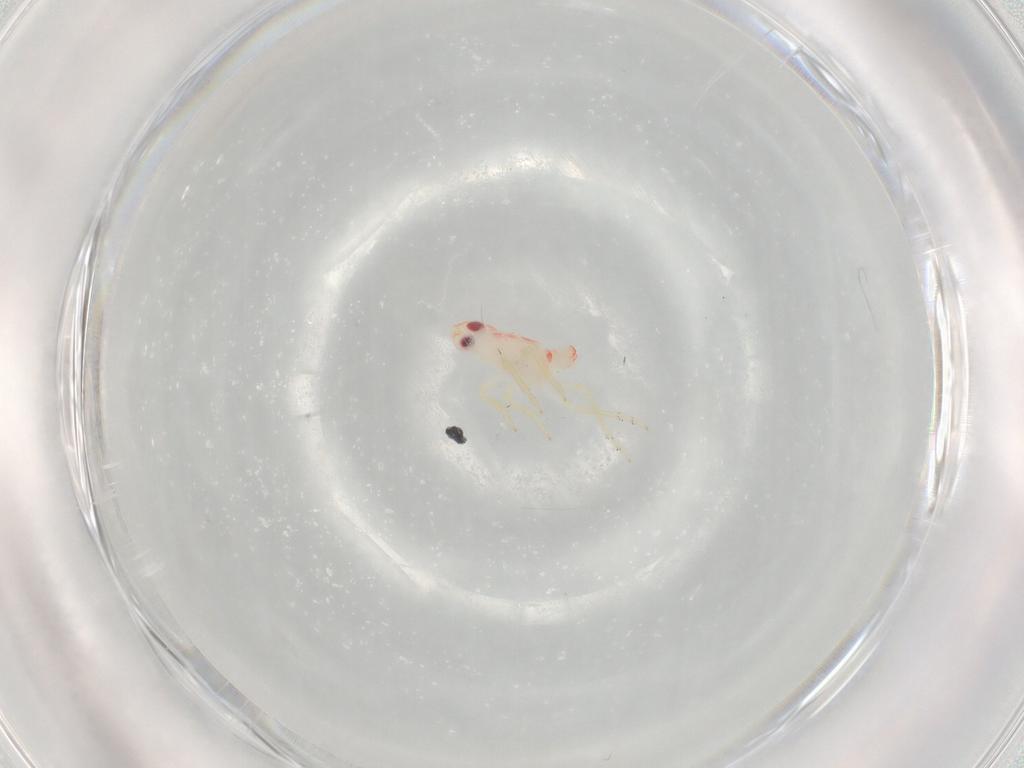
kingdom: Animalia
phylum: Arthropoda
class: Insecta
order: Hemiptera
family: Tropiduchidae
